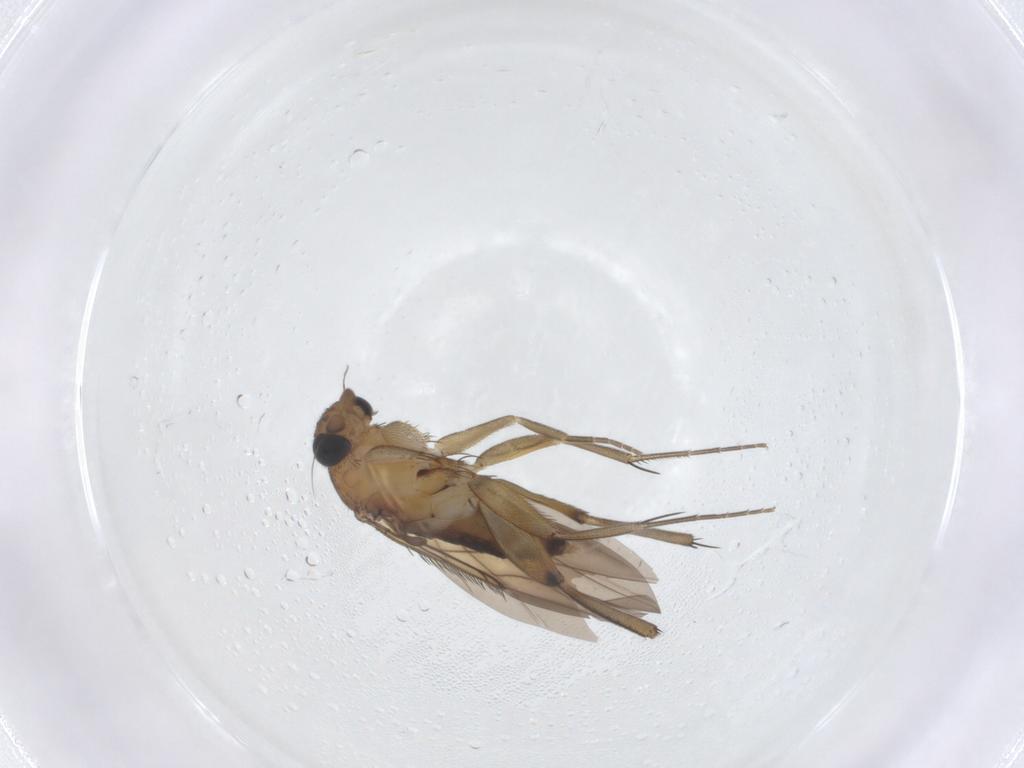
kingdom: Animalia
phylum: Arthropoda
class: Insecta
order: Diptera
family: Phoridae
